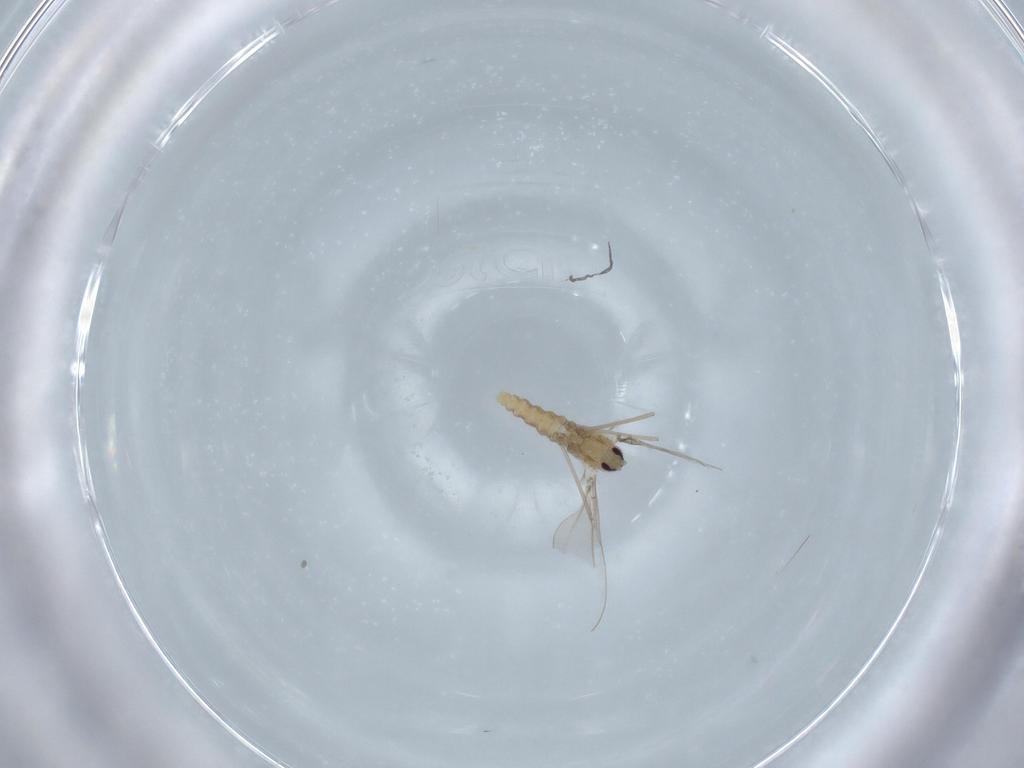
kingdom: Animalia
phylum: Arthropoda
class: Insecta
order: Diptera
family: Cecidomyiidae
